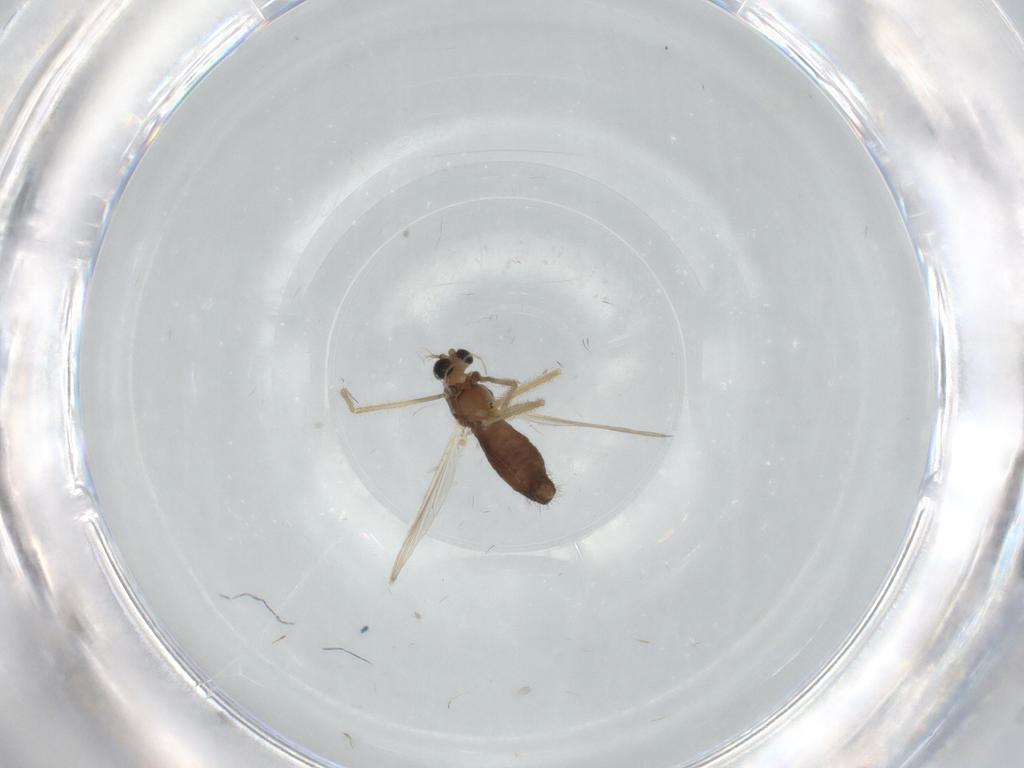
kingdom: Animalia
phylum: Arthropoda
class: Insecta
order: Diptera
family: Chironomidae
